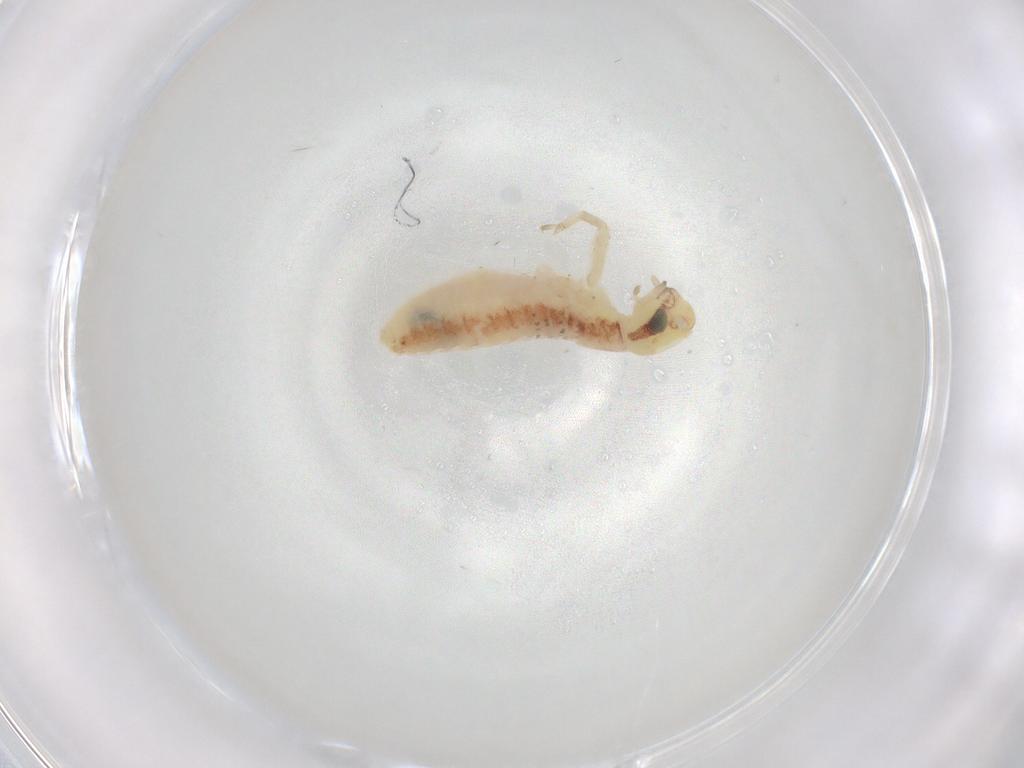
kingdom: Animalia
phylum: Arthropoda
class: Insecta
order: Orthoptera
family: Gryllidae
